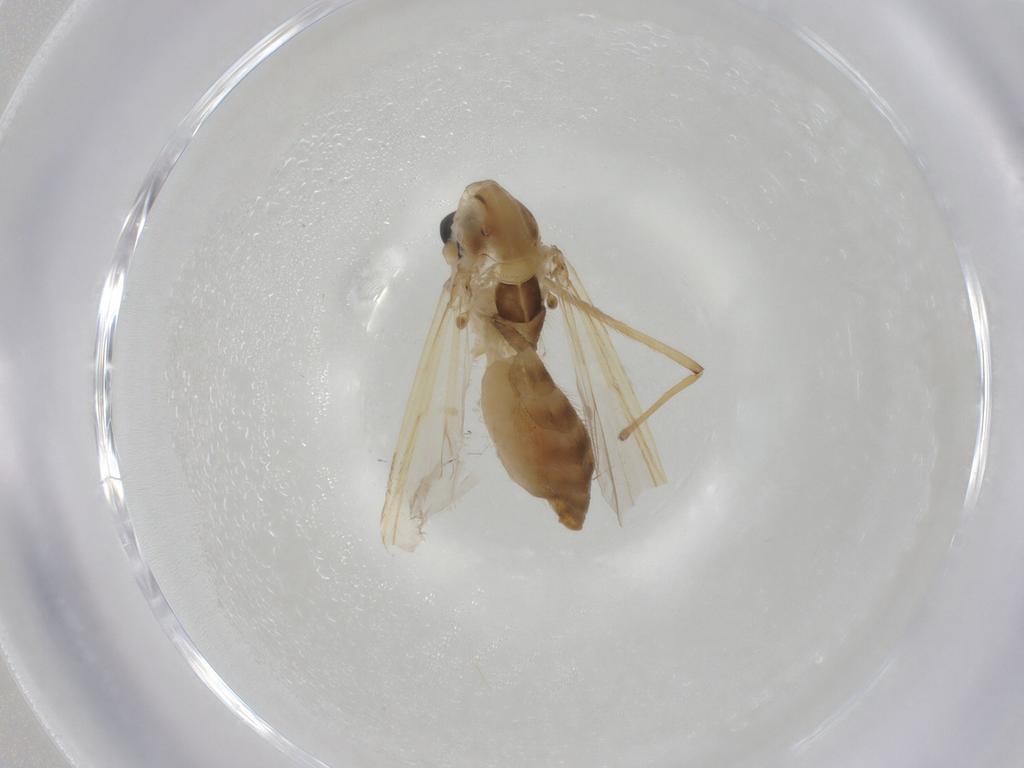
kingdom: Animalia
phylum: Arthropoda
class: Insecta
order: Diptera
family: Chironomidae
